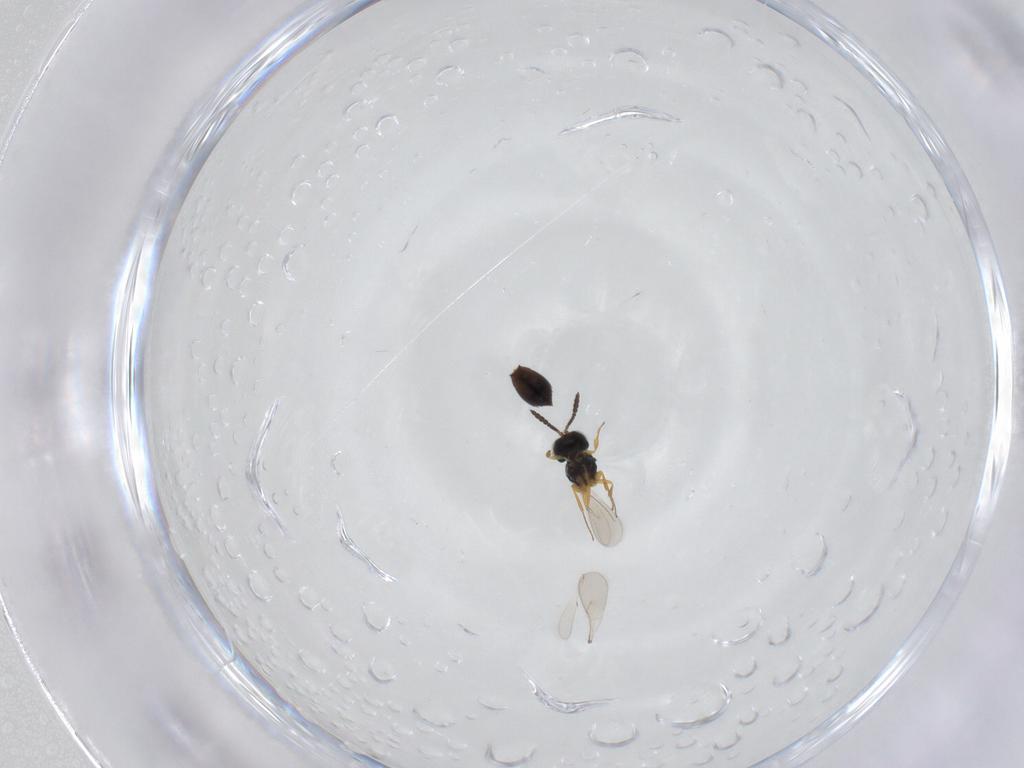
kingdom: Animalia
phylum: Arthropoda
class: Insecta
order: Hymenoptera
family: Scelionidae
